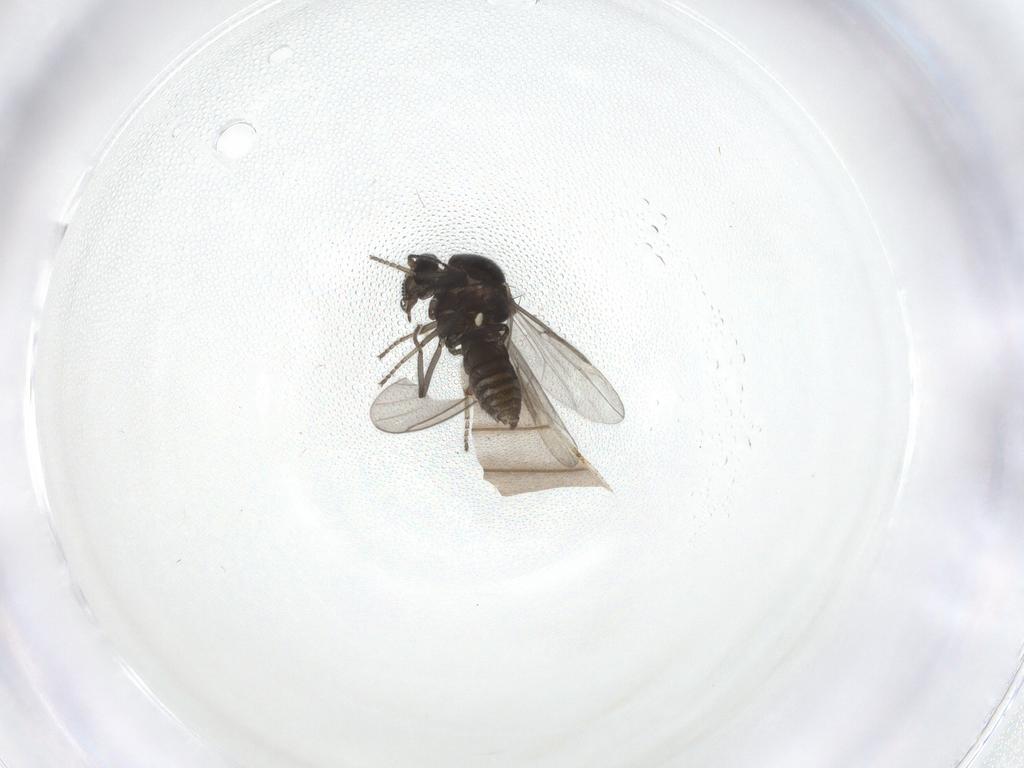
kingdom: Animalia
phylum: Arthropoda
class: Insecta
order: Diptera
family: Ceratopogonidae
